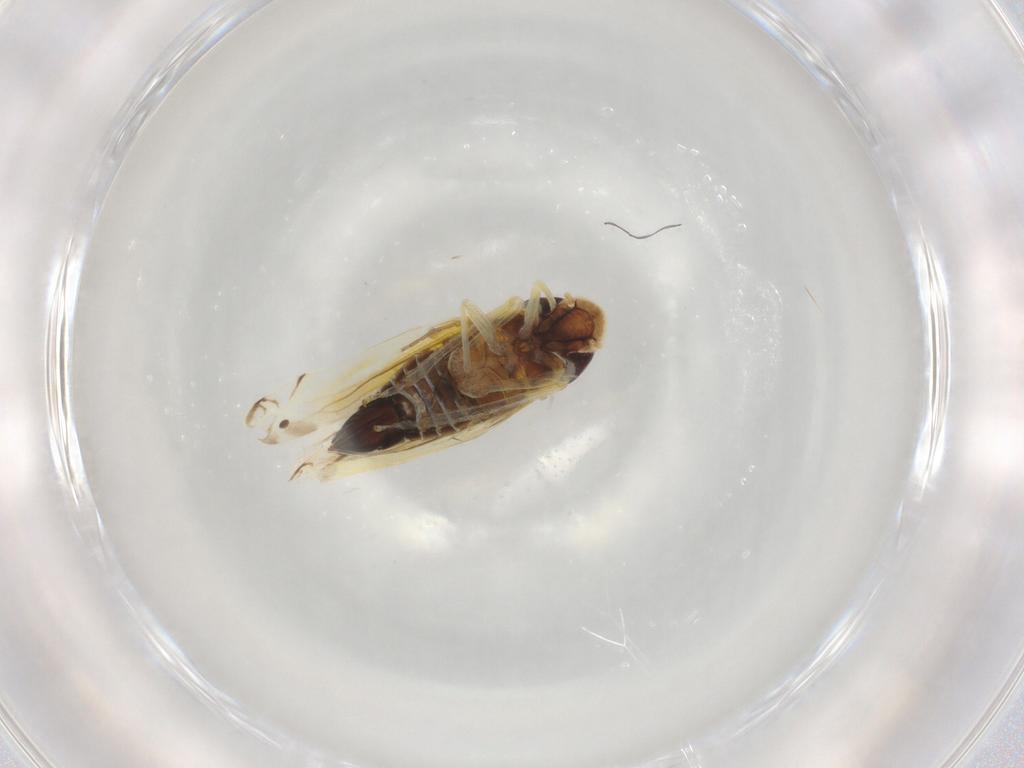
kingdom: Animalia
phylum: Arthropoda
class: Insecta
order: Hemiptera
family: Cicadellidae
